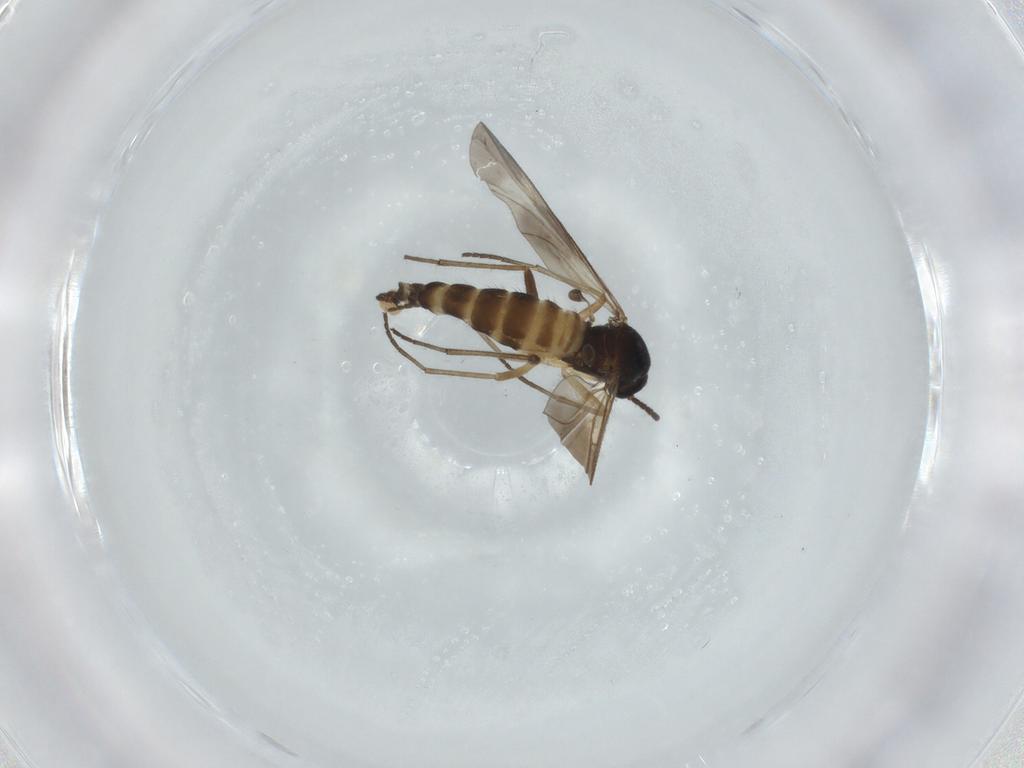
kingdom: Animalia
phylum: Arthropoda
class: Insecta
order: Diptera
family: Sciaridae
